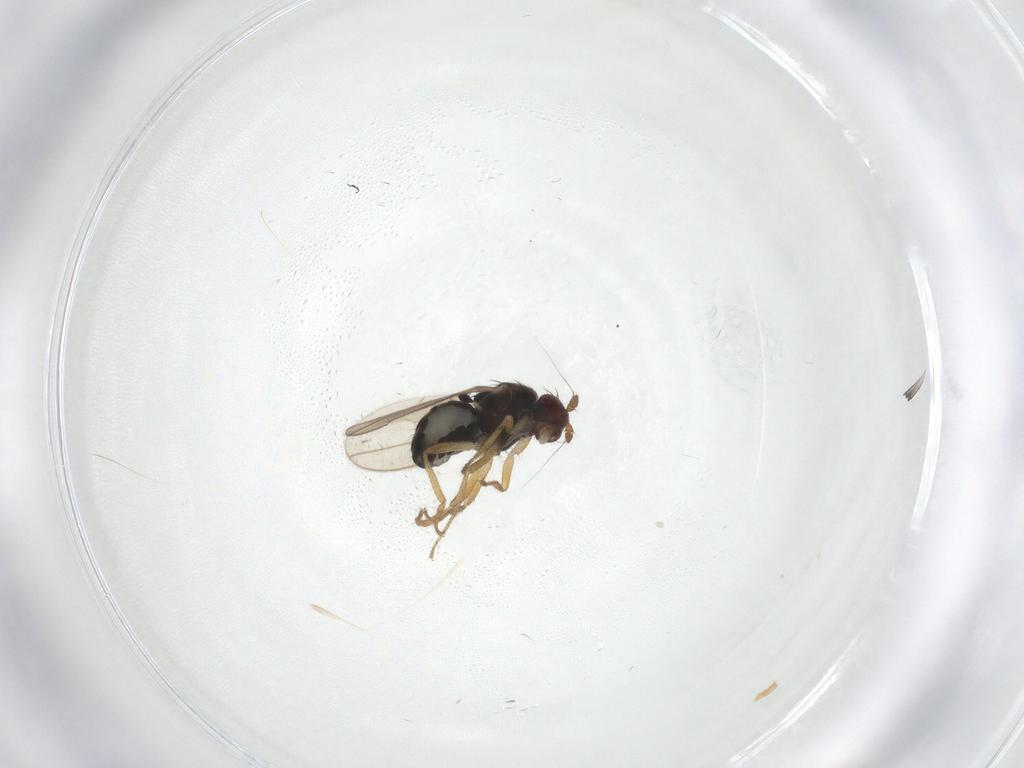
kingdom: Animalia
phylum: Arthropoda
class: Insecta
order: Diptera
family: Sphaeroceridae
